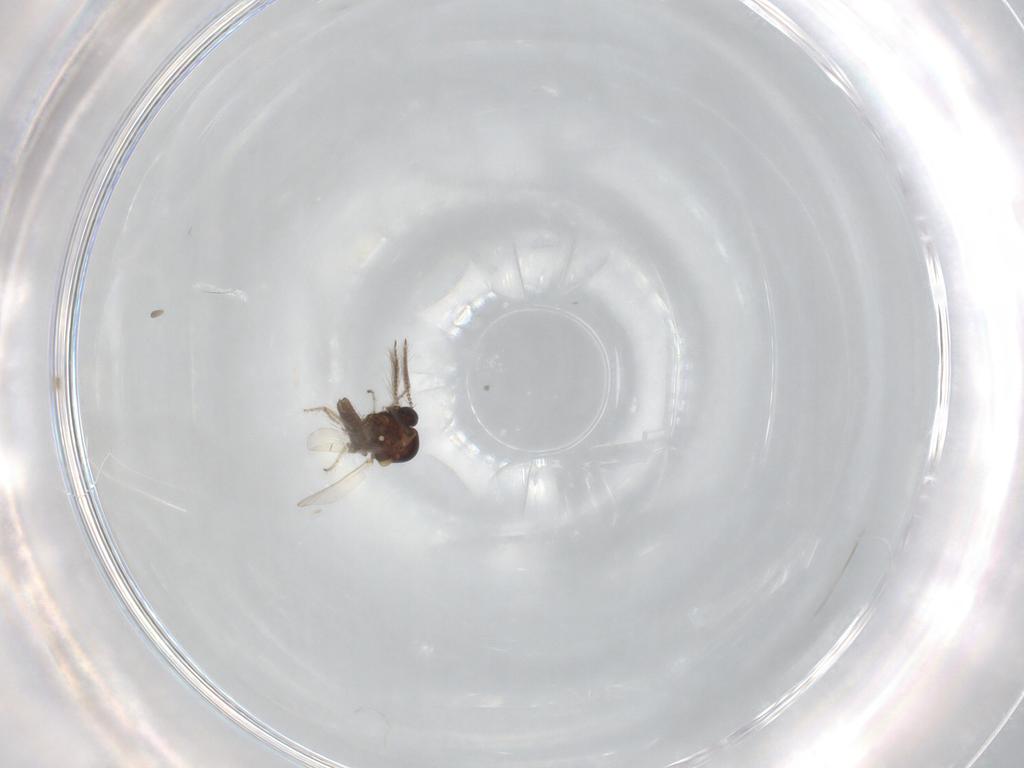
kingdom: Animalia
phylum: Arthropoda
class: Insecta
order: Diptera
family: Ceratopogonidae
